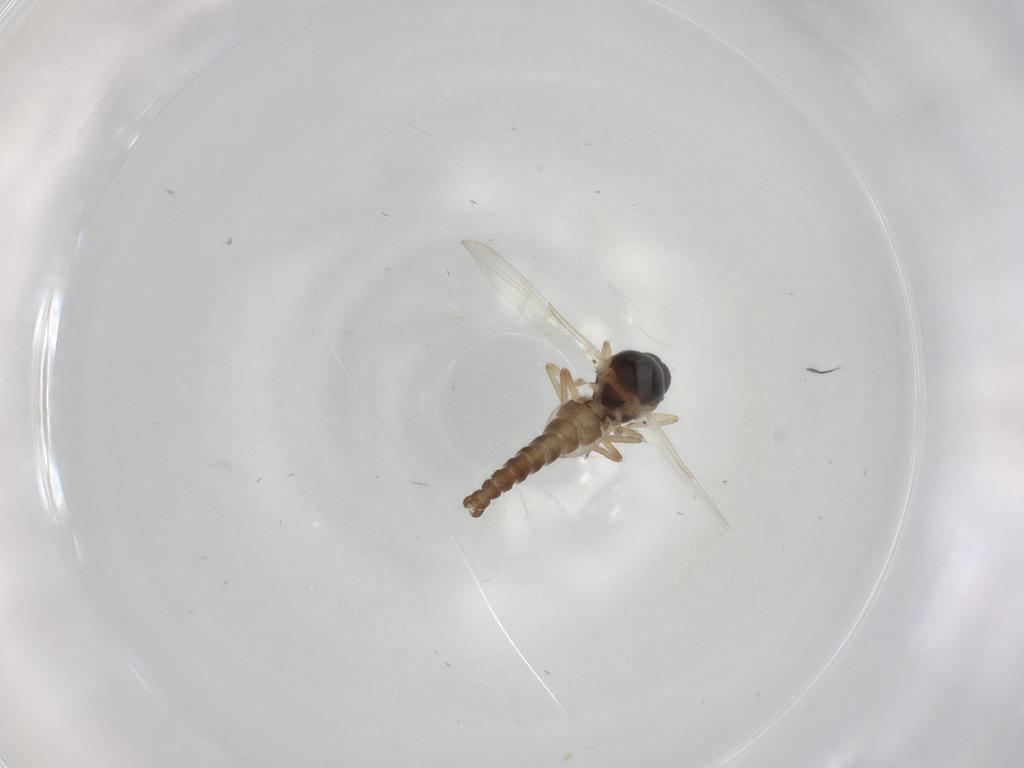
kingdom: Animalia
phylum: Arthropoda
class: Insecta
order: Diptera
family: Ceratopogonidae
